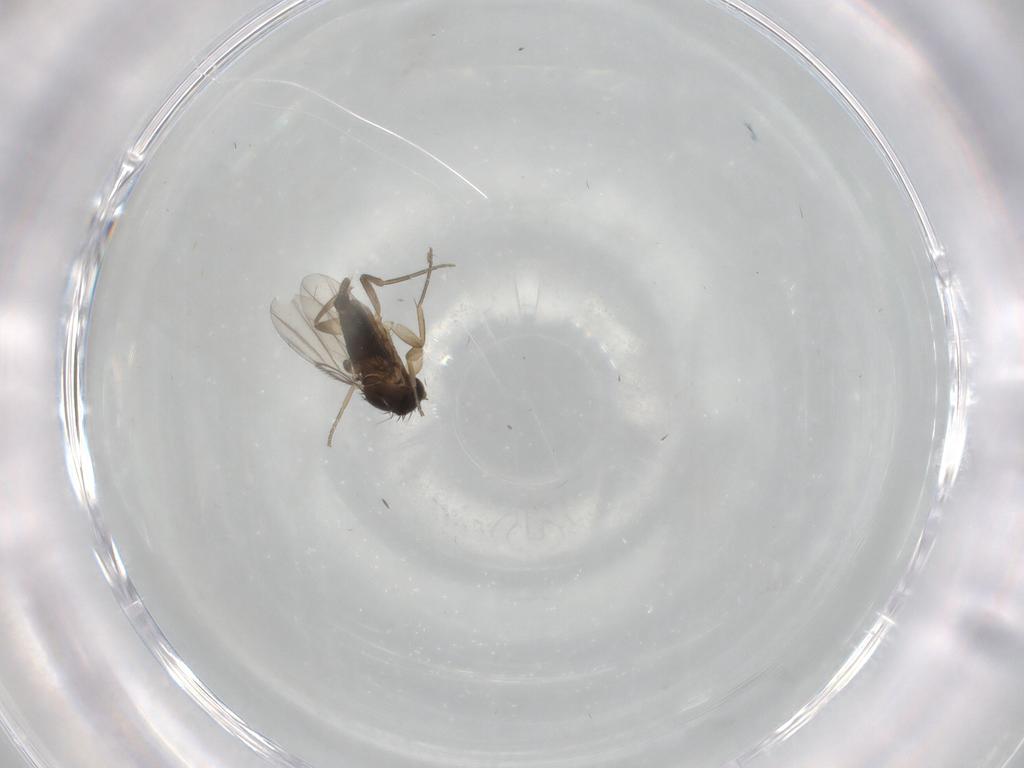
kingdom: Animalia
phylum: Arthropoda
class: Insecta
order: Diptera
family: Phoridae
